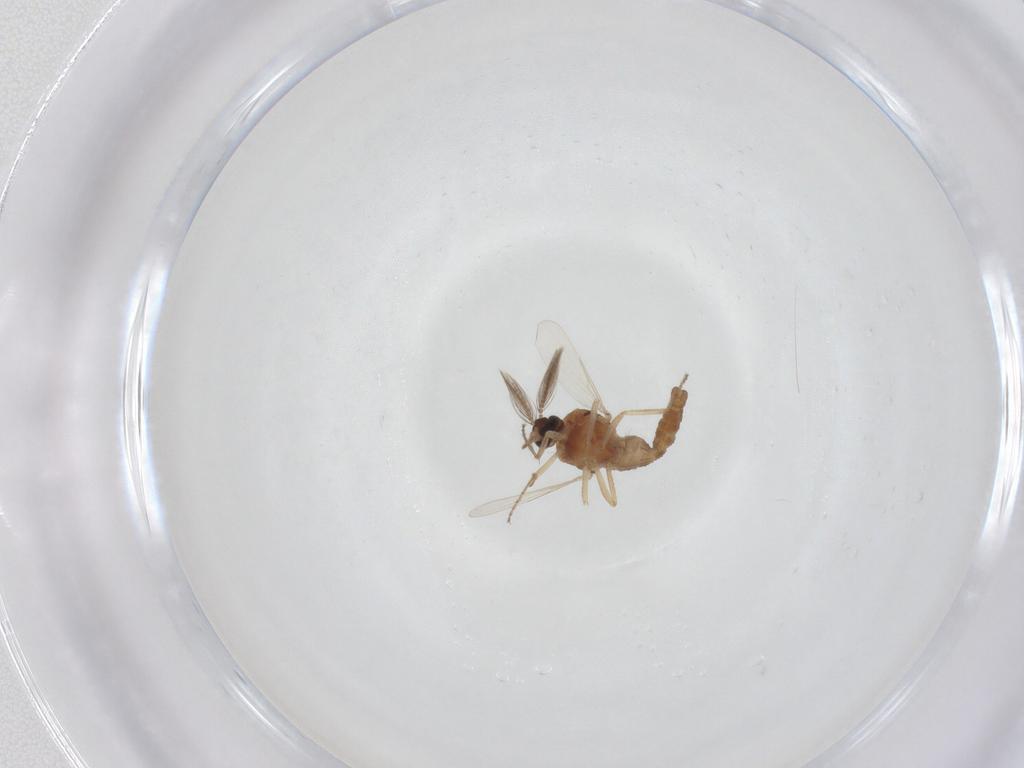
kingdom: Animalia
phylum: Arthropoda
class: Insecta
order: Diptera
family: Ceratopogonidae
